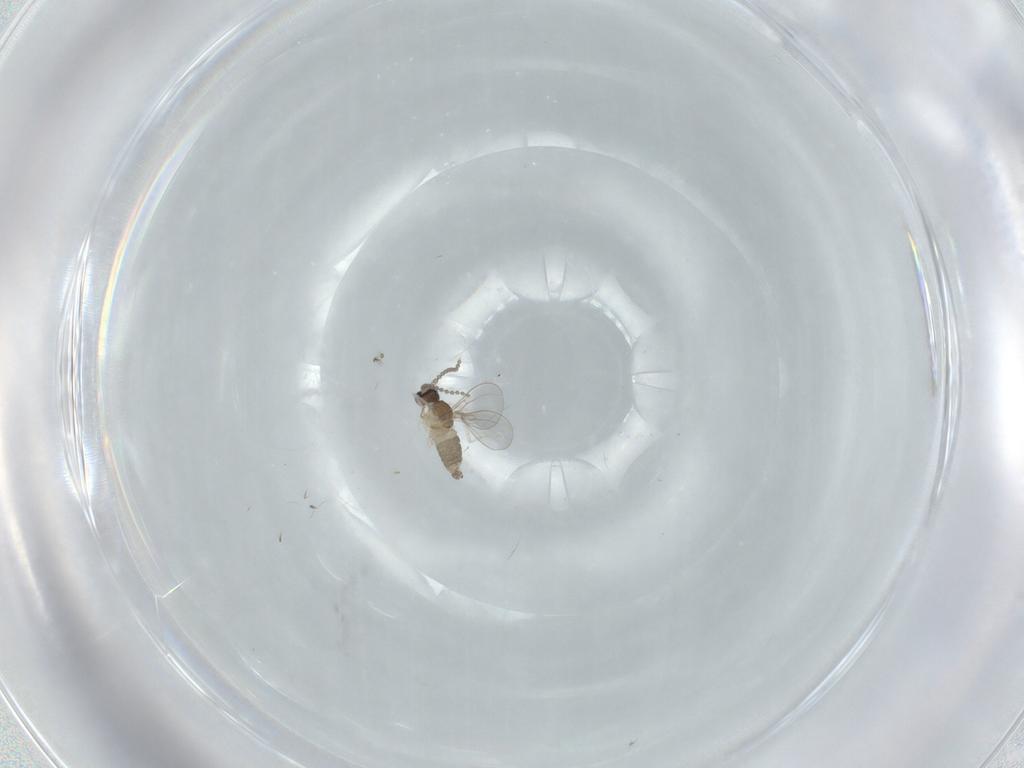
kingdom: Animalia
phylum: Arthropoda
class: Insecta
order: Diptera
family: Cecidomyiidae
